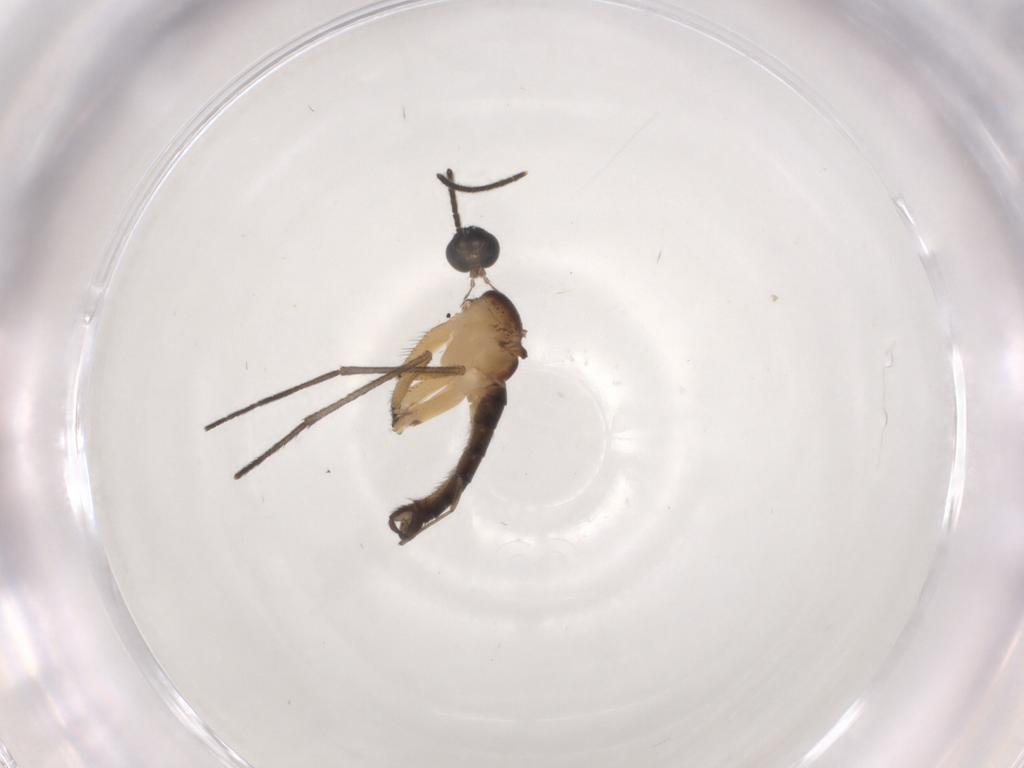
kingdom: Animalia
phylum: Arthropoda
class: Insecta
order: Diptera
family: Sciaridae
